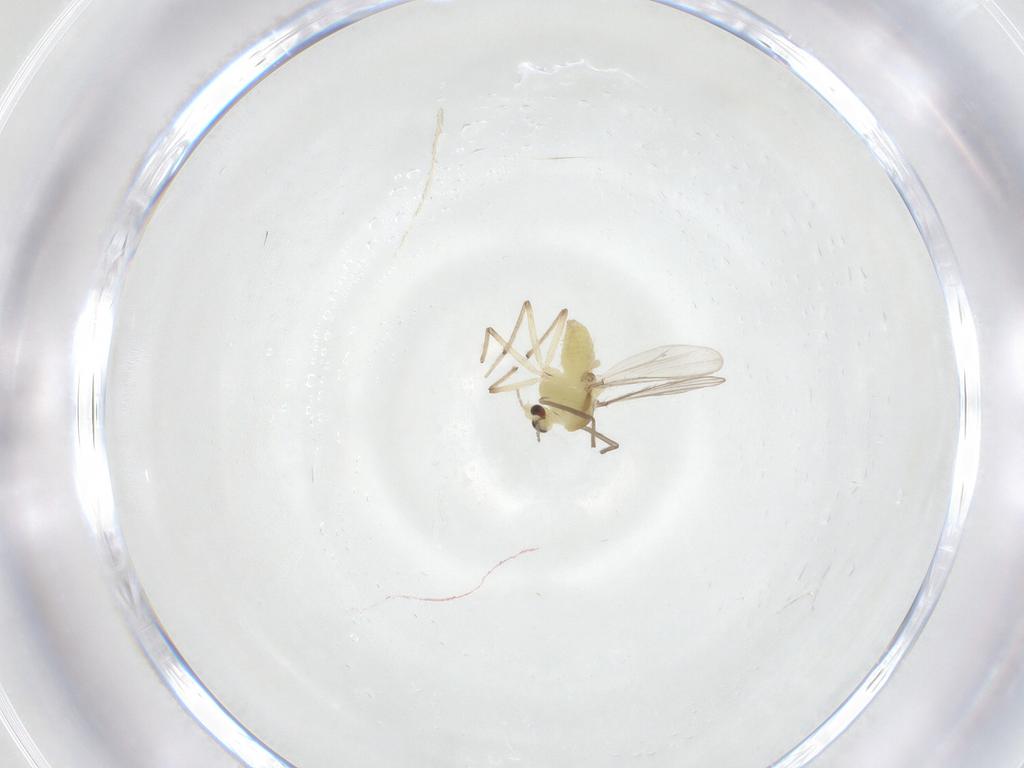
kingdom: Animalia
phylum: Arthropoda
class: Insecta
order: Diptera
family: Chironomidae
